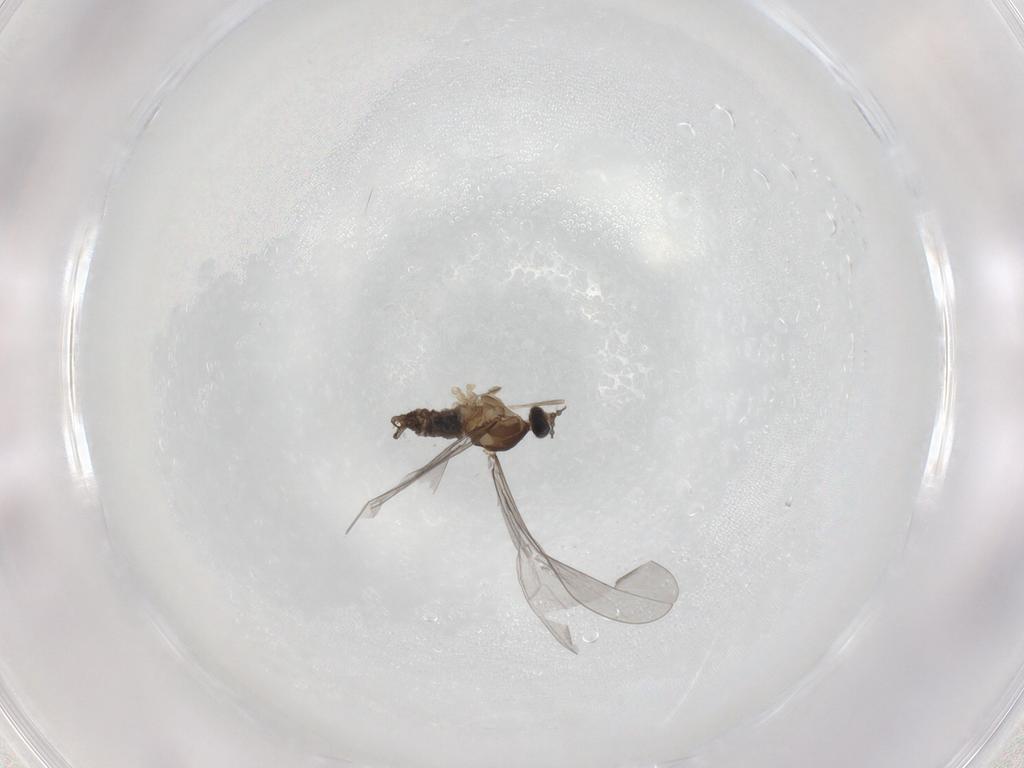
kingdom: Animalia
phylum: Arthropoda
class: Insecta
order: Diptera
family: Cecidomyiidae
